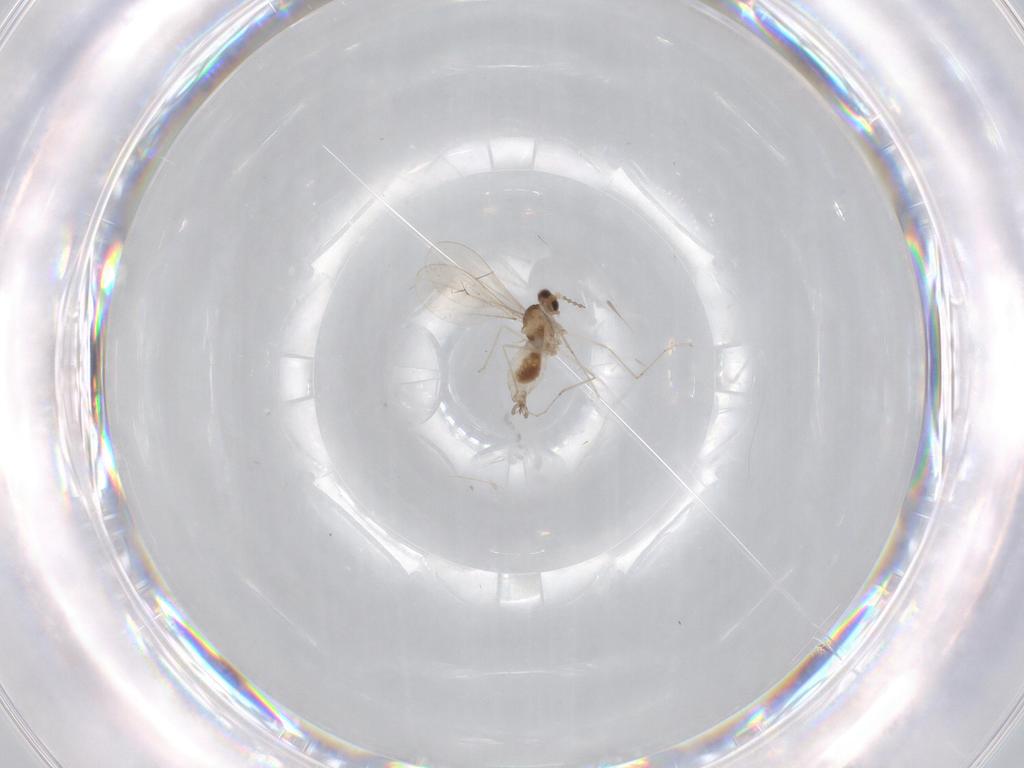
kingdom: Animalia
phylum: Arthropoda
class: Insecta
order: Diptera
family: Cecidomyiidae
